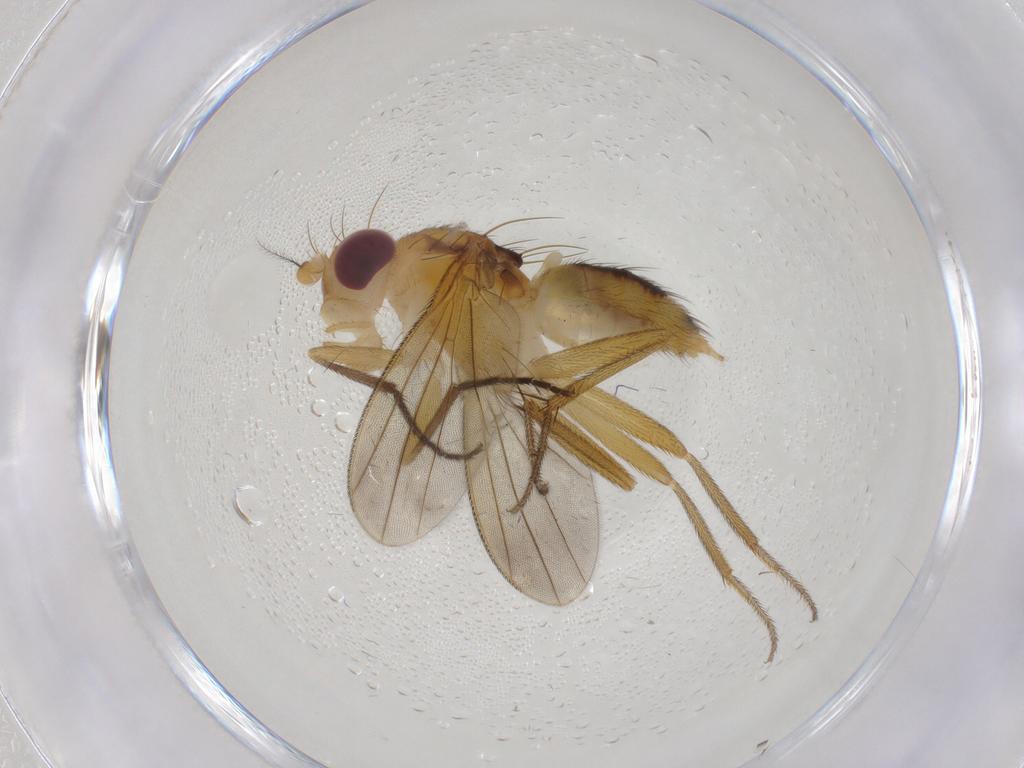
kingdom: Animalia
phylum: Arthropoda
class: Insecta
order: Diptera
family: Clusiidae
